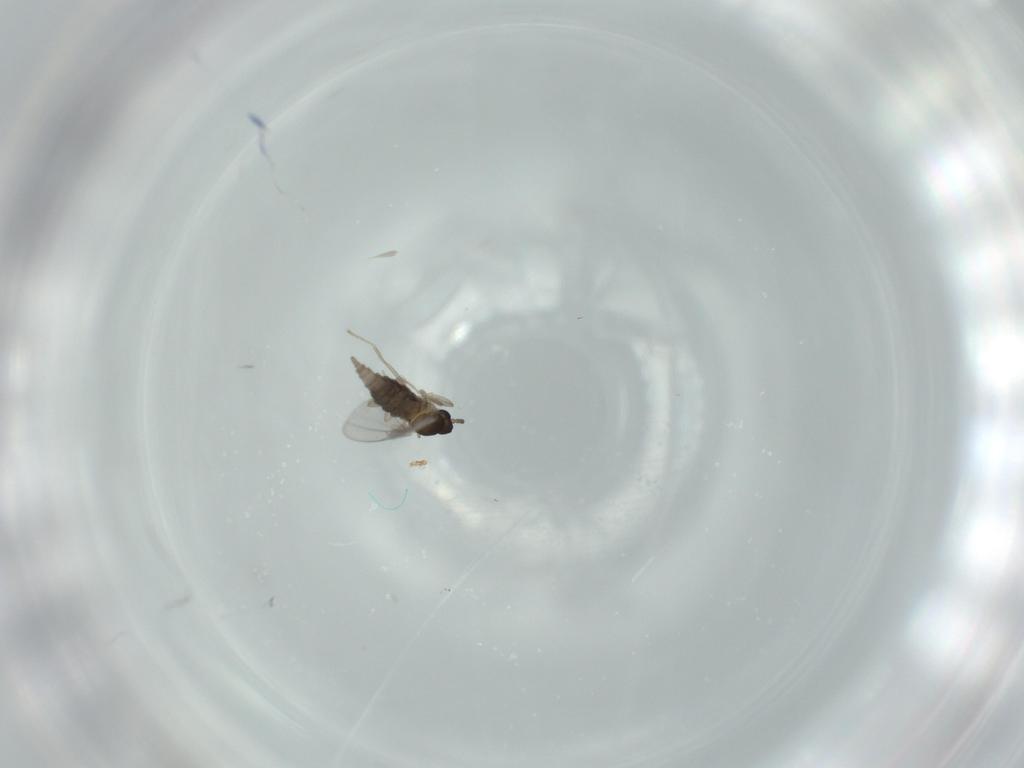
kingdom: Animalia
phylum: Arthropoda
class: Insecta
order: Diptera
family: Cecidomyiidae
